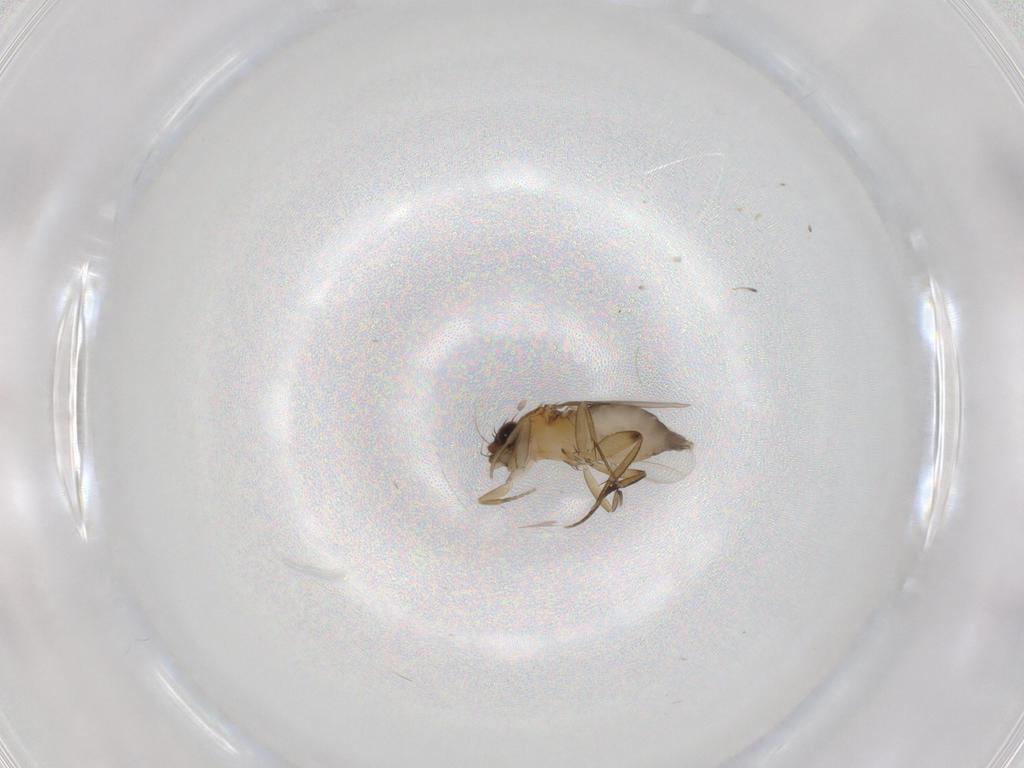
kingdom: Animalia
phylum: Arthropoda
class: Insecta
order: Diptera
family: Phoridae
